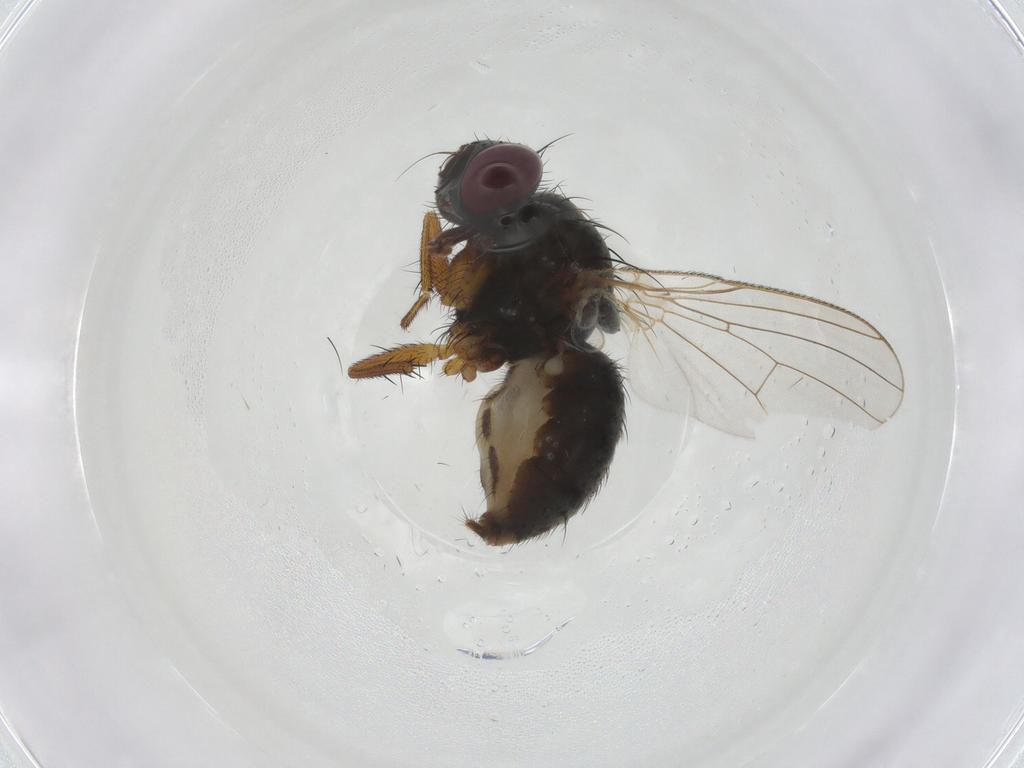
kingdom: Animalia
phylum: Arthropoda
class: Insecta
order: Diptera
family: Muscidae
